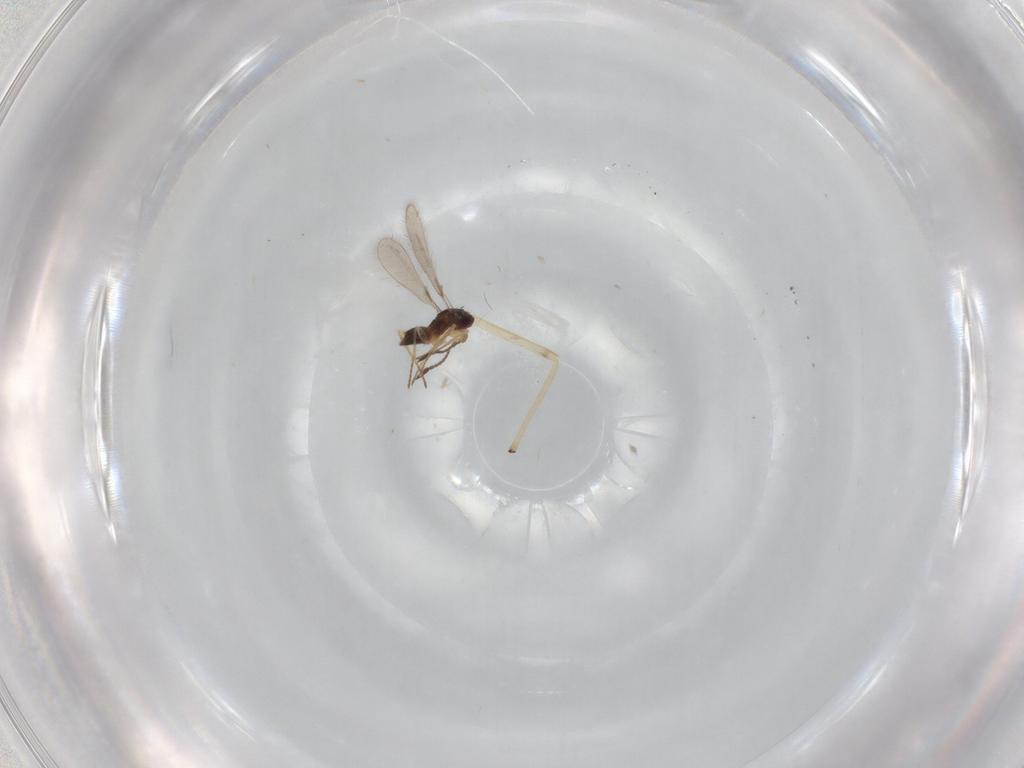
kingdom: Animalia
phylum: Arthropoda
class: Insecta
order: Hymenoptera
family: Mymaridae
